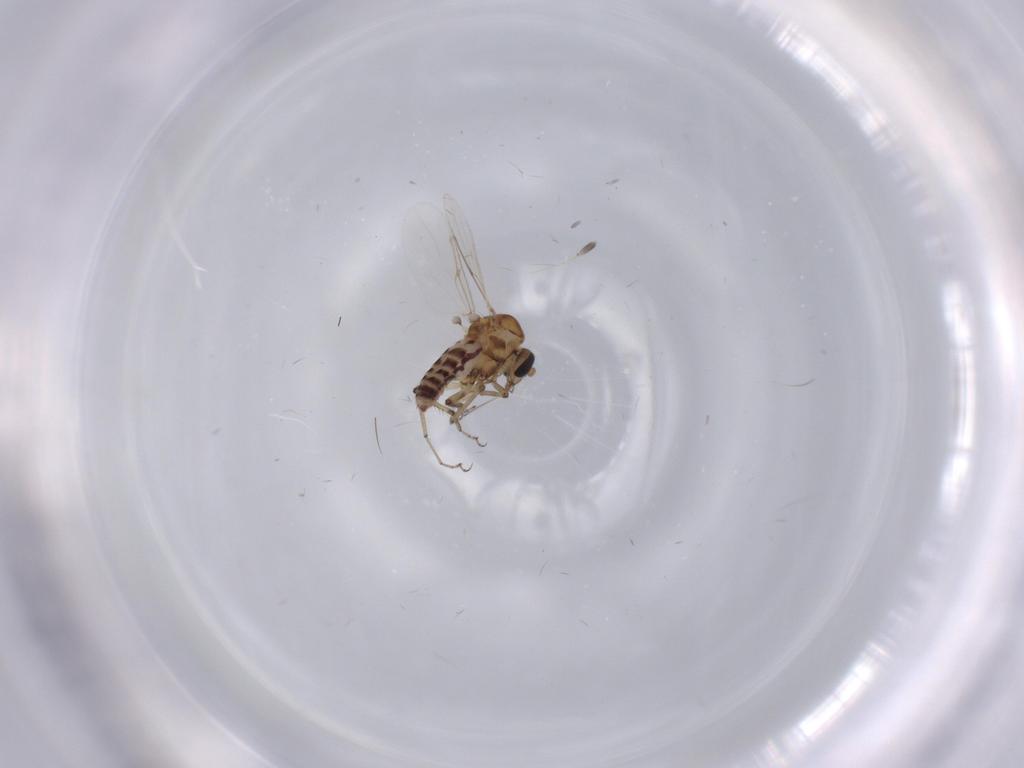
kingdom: Animalia
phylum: Arthropoda
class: Insecta
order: Diptera
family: Ceratopogonidae
